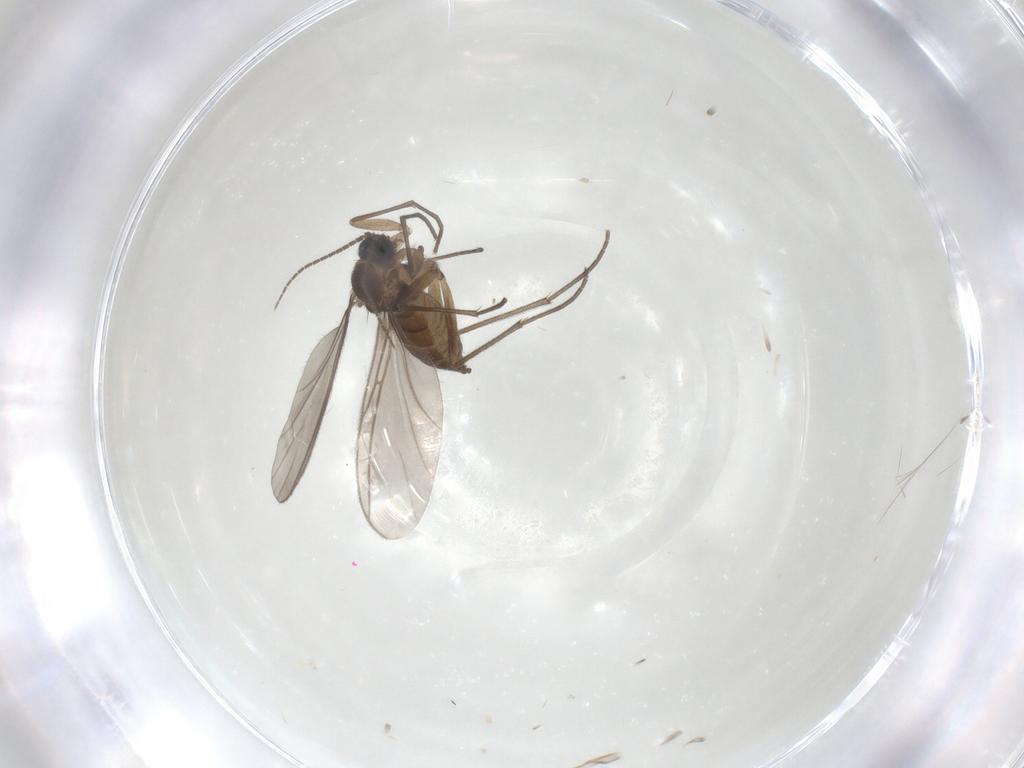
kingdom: Animalia
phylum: Arthropoda
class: Insecta
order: Diptera
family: Sciaridae
